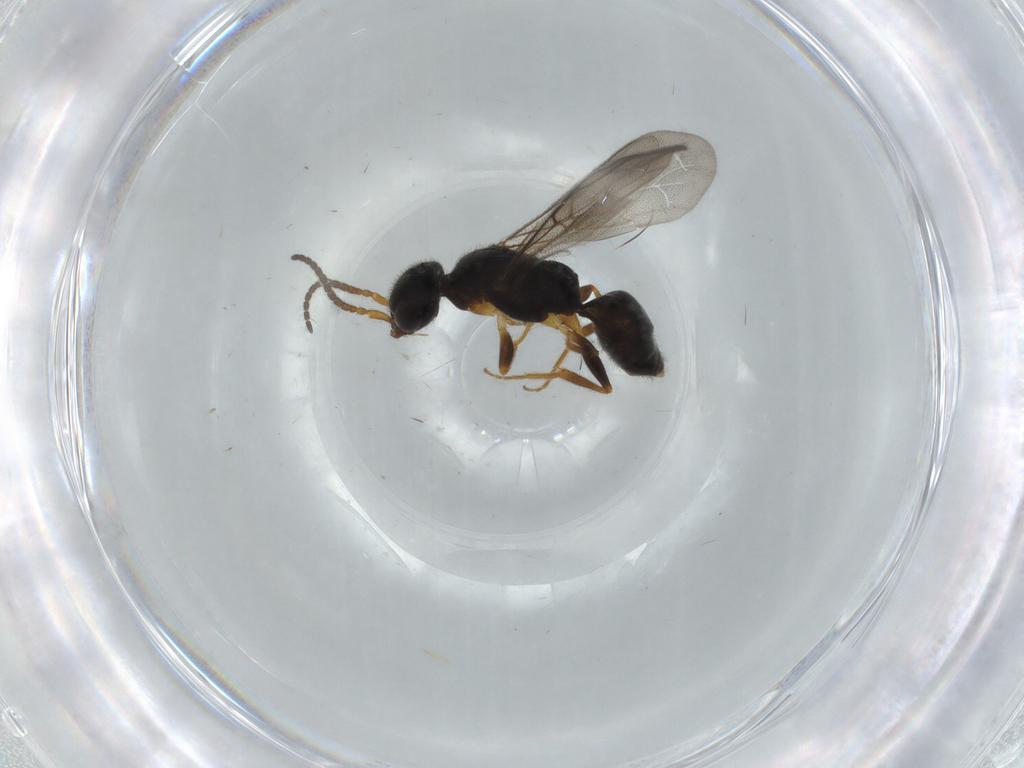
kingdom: Animalia
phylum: Arthropoda
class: Insecta
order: Hymenoptera
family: Bethylidae
